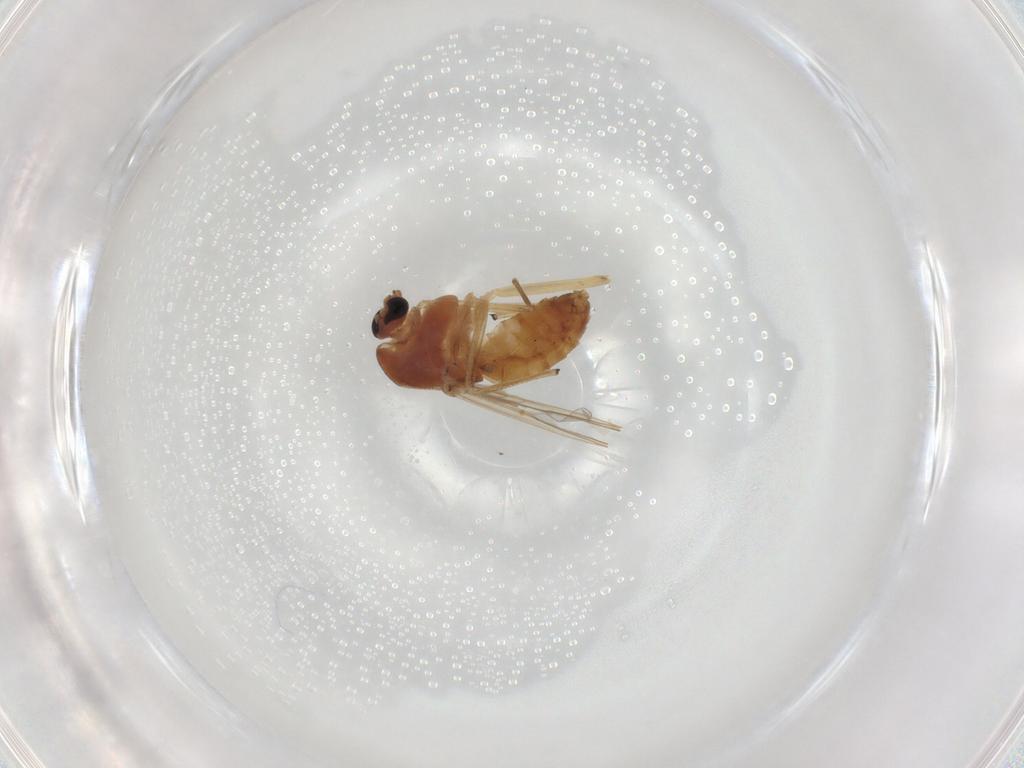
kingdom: Animalia
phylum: Arthropoda
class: Insecta
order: Diptera
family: Chironomidae
